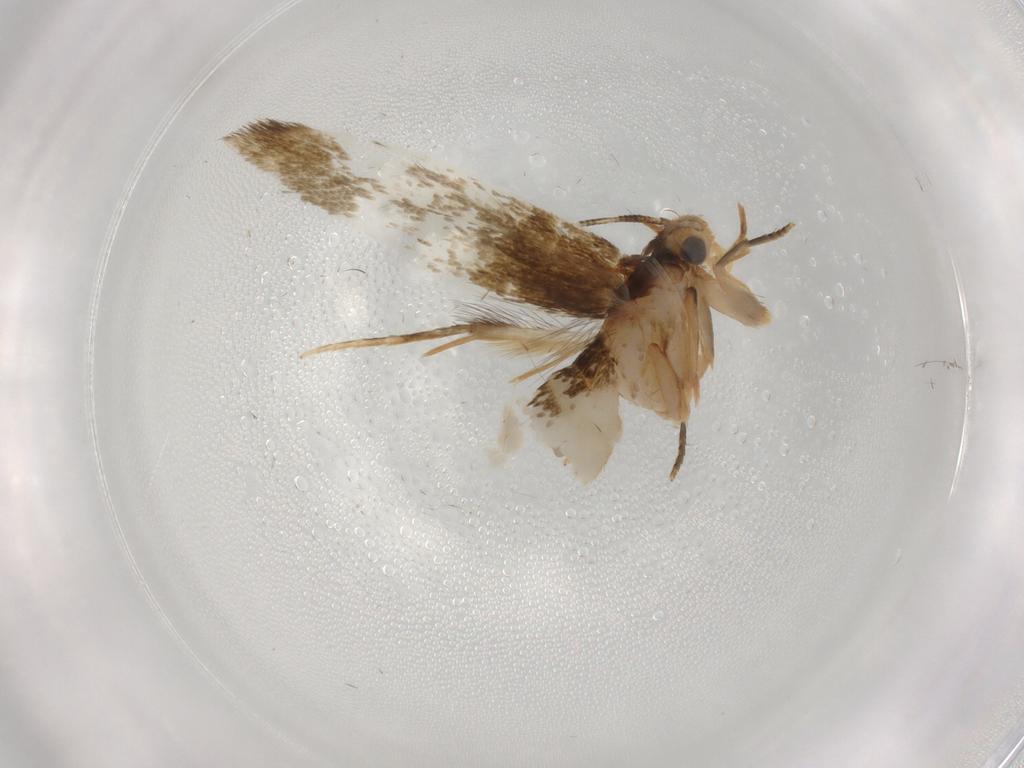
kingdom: Animalia
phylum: Arthropoda
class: Insecta
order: Lepidoptera
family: Tineidae
